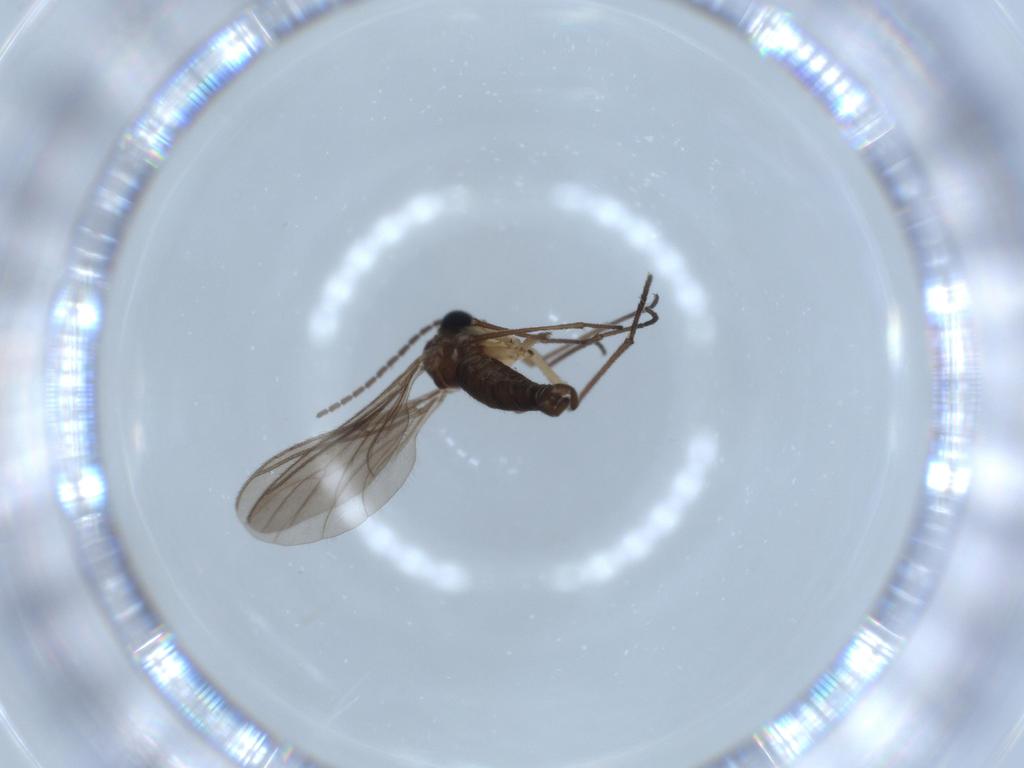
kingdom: Animalia
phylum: Arthropoda
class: Insecta
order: Diptera
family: Sciaridae
